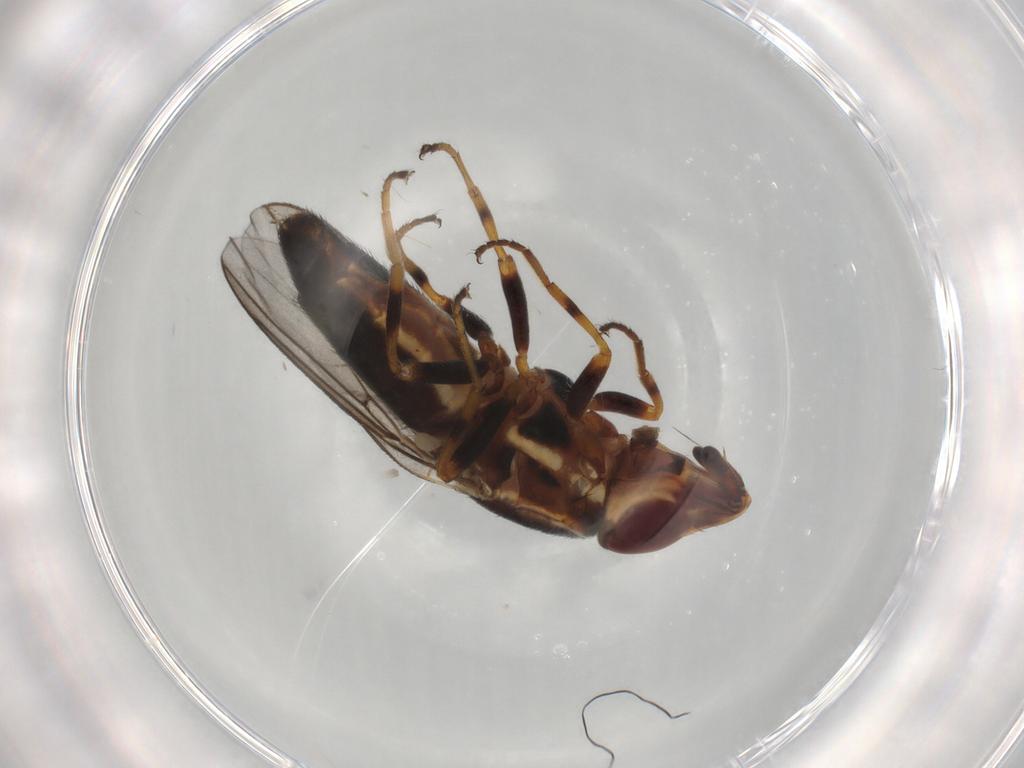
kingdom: Animalia
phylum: Arthropoda
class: Insecta
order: Diptera
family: Chloropidae
